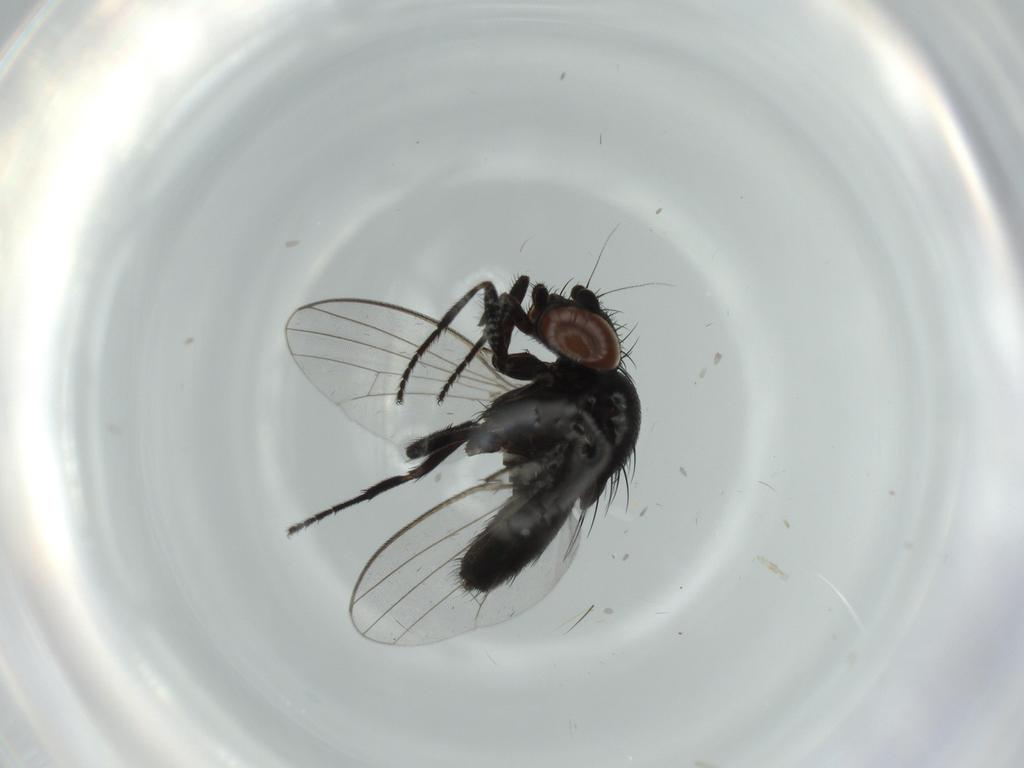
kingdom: Animalia
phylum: Arthropoda
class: Insecta
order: Diptera
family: Milichiidae
